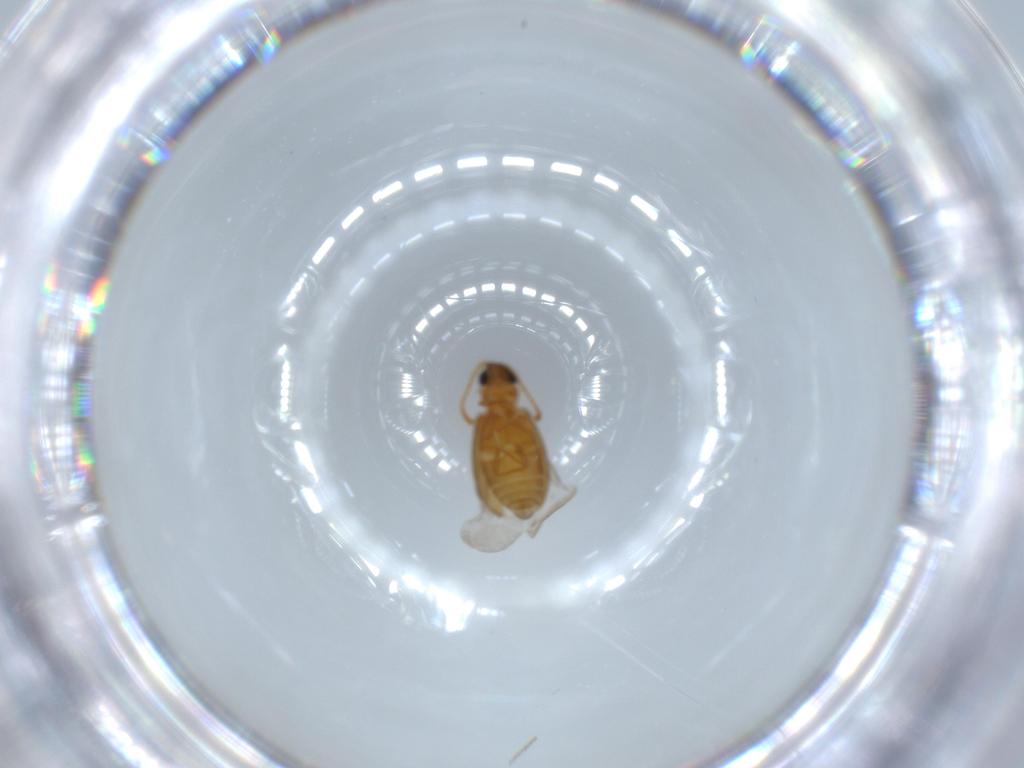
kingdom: Animalia
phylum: Arthropoda
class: Insecta
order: Coleoptera
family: Aderidae
